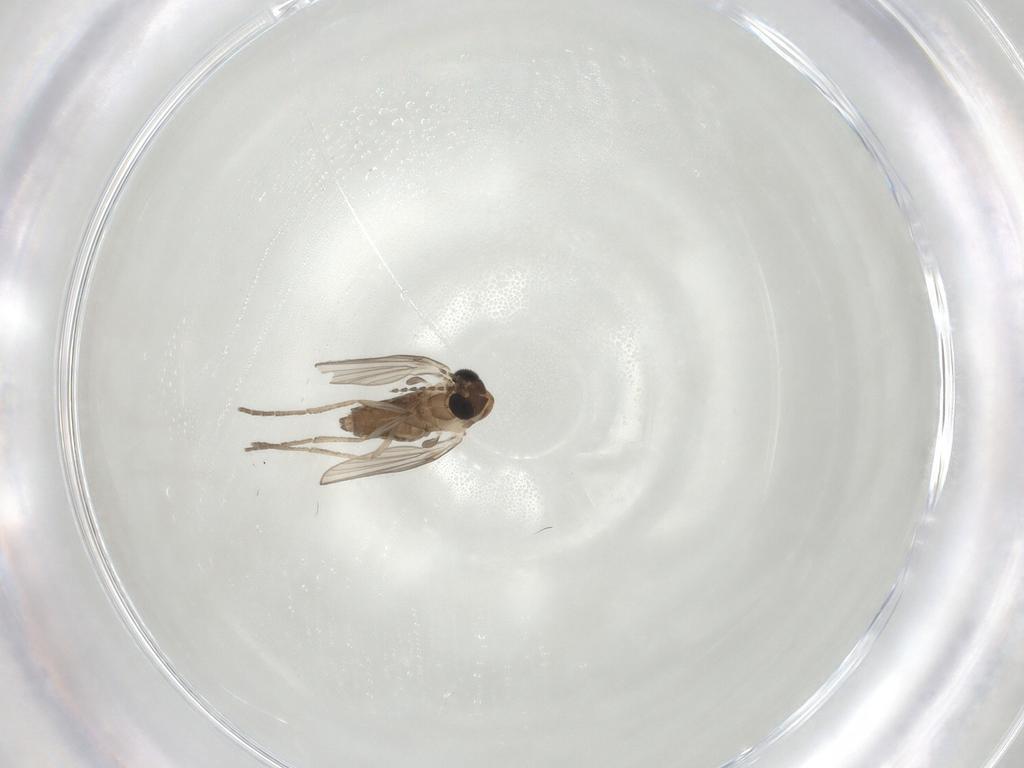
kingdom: Animalia
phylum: Arthropoda
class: Insecta
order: Diptera
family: Psychodidae
